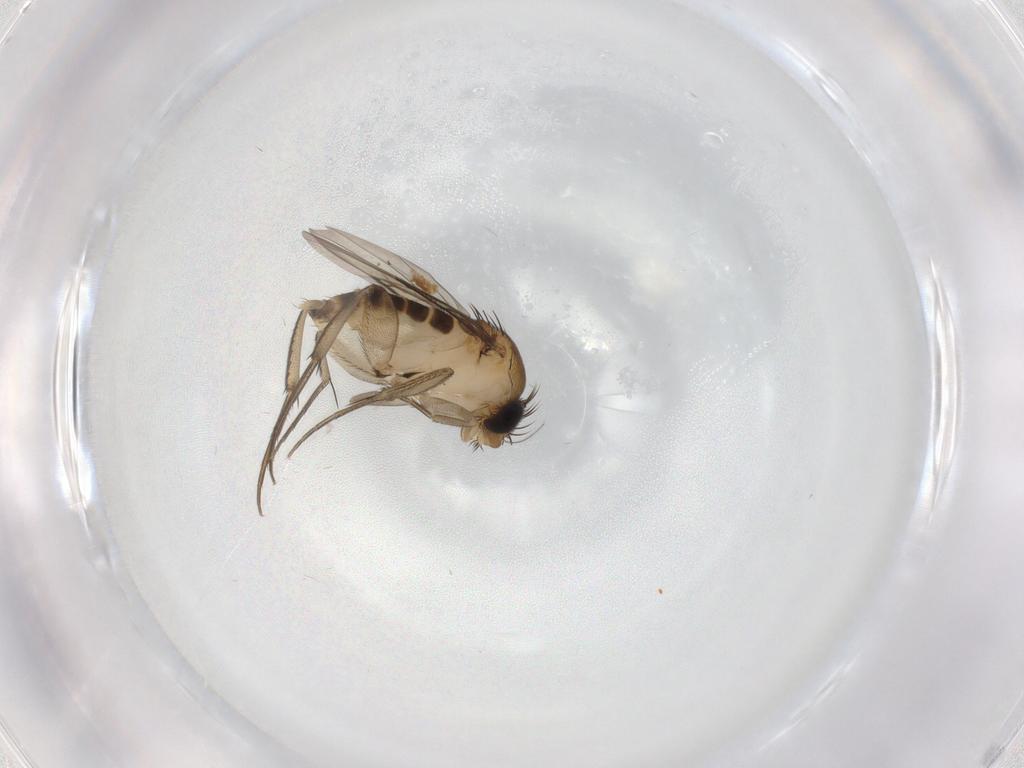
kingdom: Animalia
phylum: Arthropoda
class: Insecta
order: Diptera
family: Phoridae
